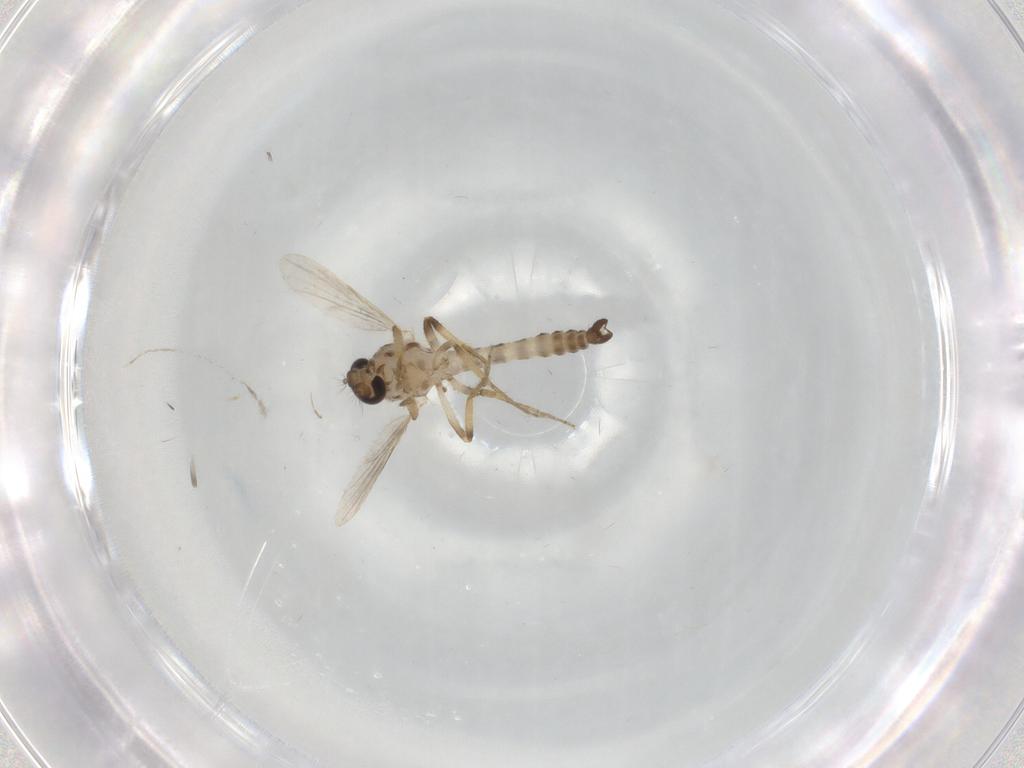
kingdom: Animalia
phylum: Arthropoda
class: Insecta
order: Diptera
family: Ceratopogonidae
